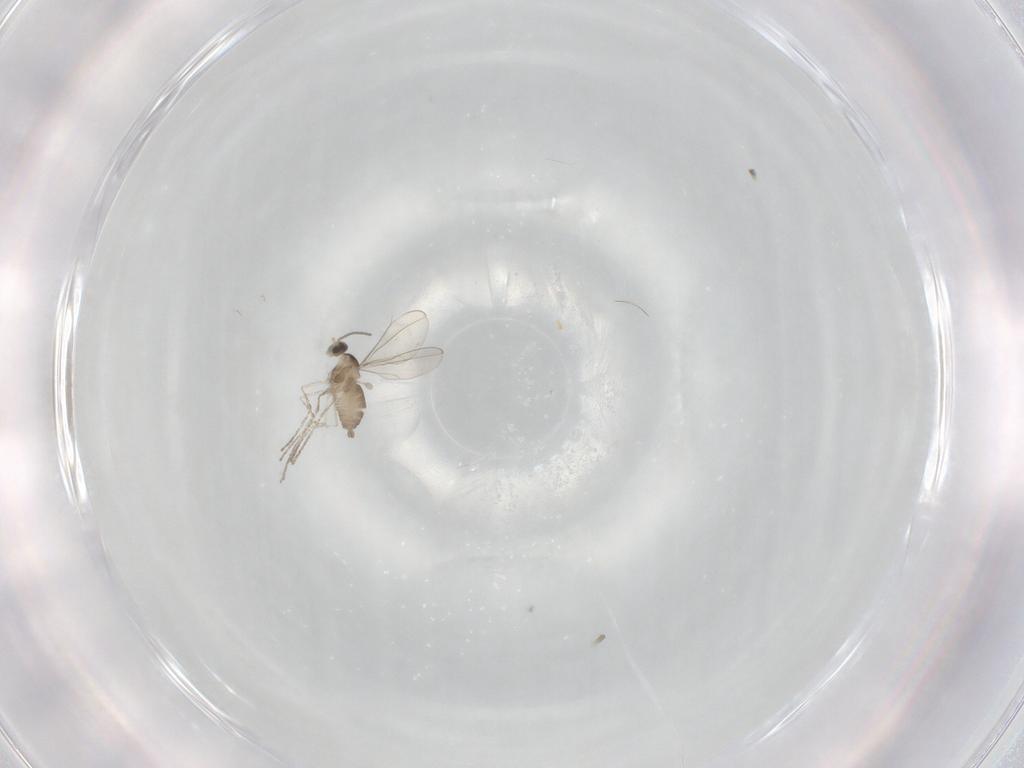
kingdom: Animalia
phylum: Arthropoda
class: Insecta
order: Diptera
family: Cecidomyiidae
